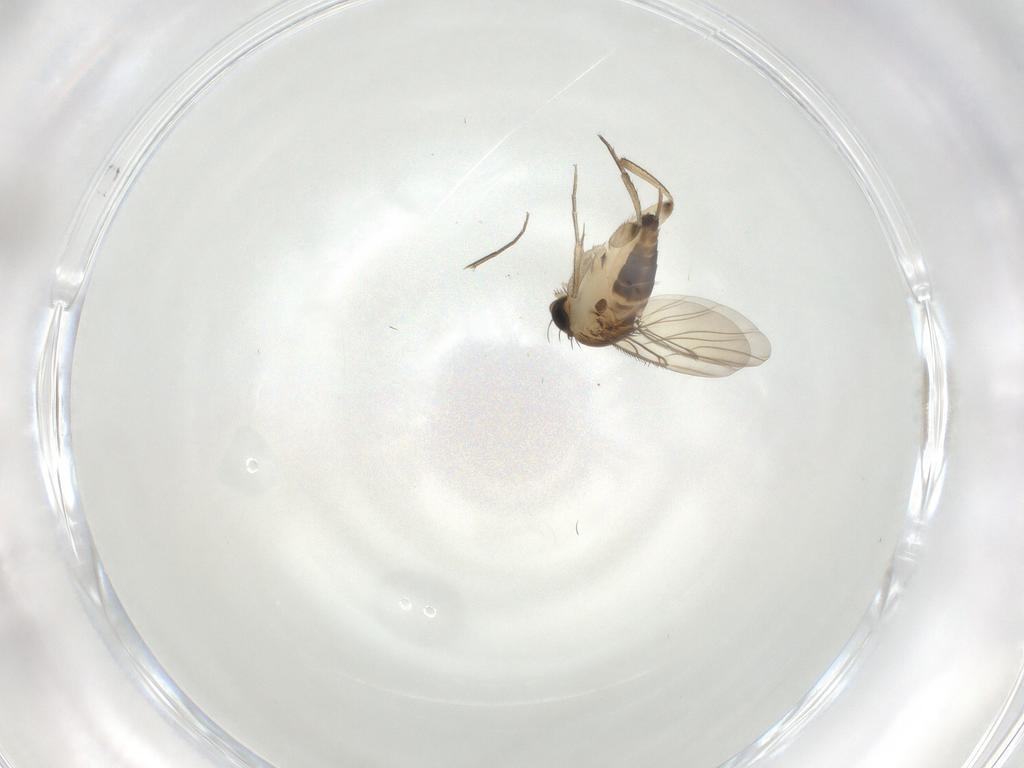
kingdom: Animalia
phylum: Arthropoda
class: Insecta
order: Diptera
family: Phoridae
